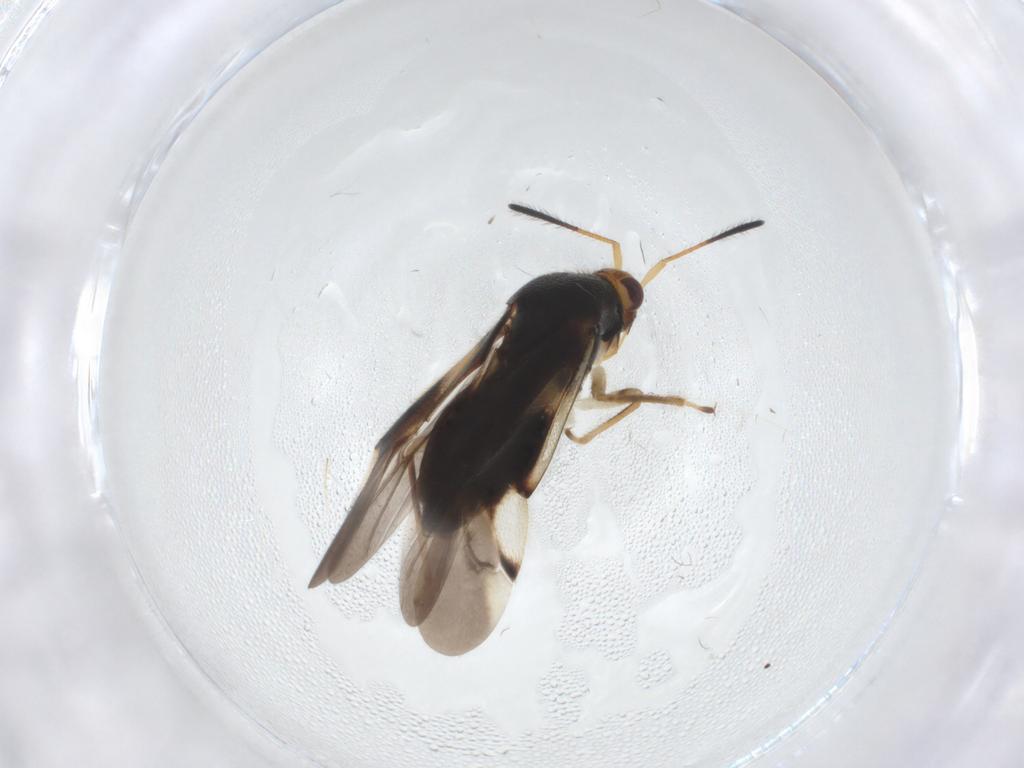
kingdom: Animalia
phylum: Arthropoda
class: Insecta
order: Hemiptera
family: Miridae
